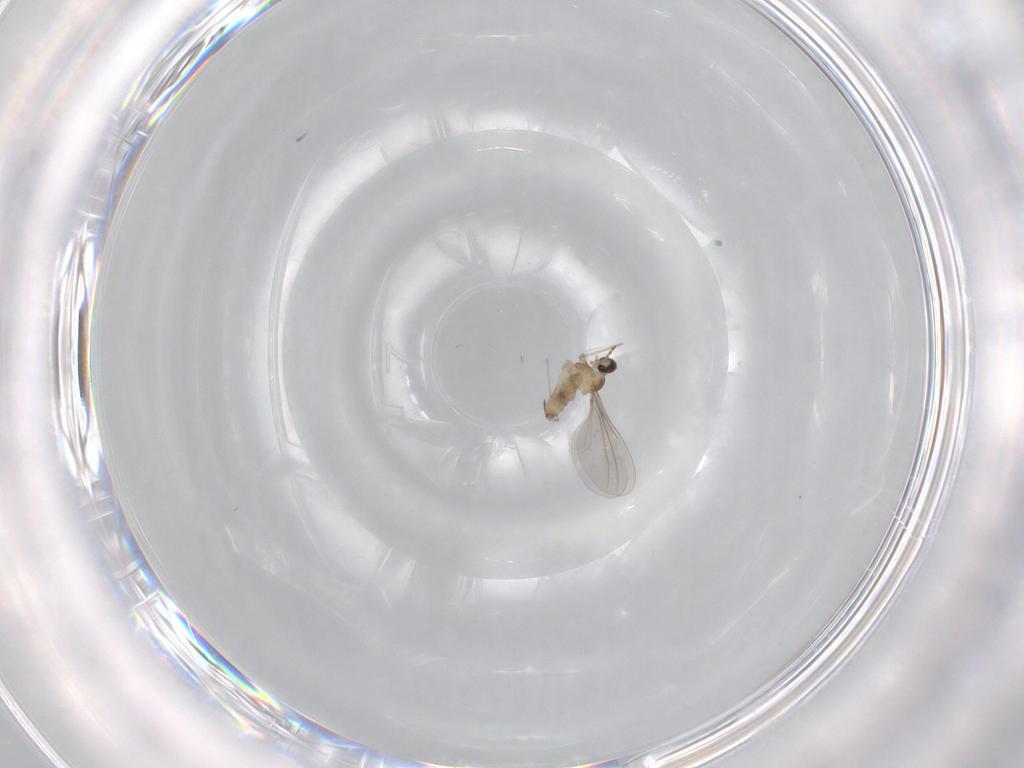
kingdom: Animalia
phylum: Arthropoda
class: Insecta
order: Diptera
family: Cecidomyiidae
